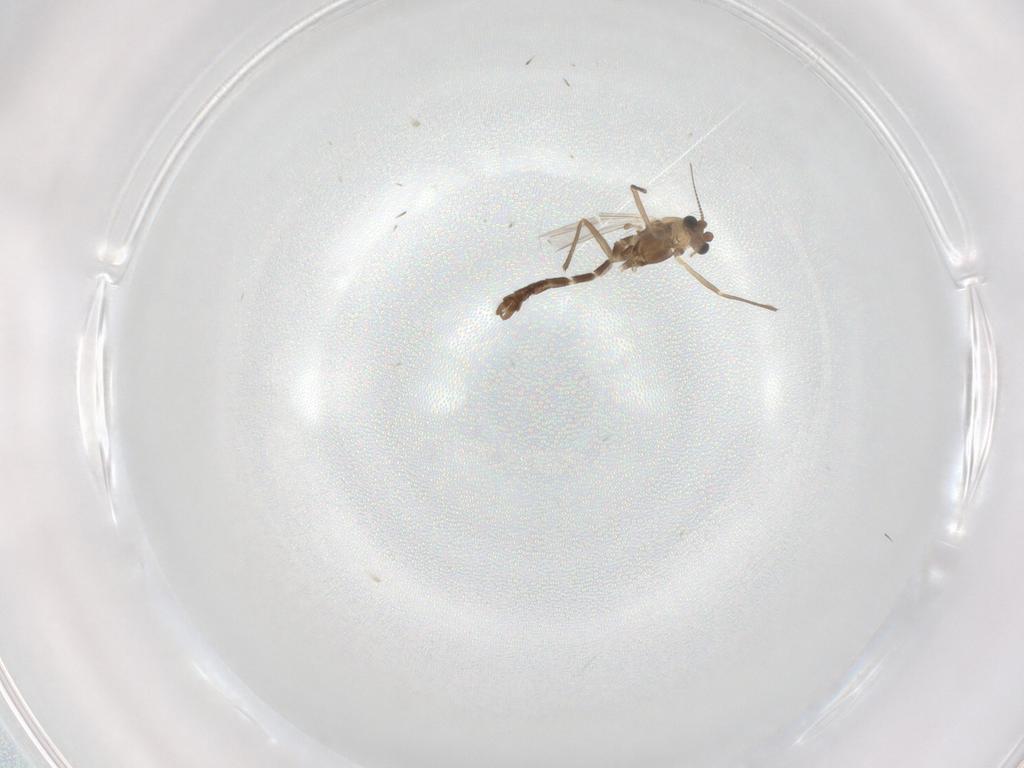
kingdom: Animalia
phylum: Arthropoda
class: Insecta
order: Diptera
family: Chironomidae
